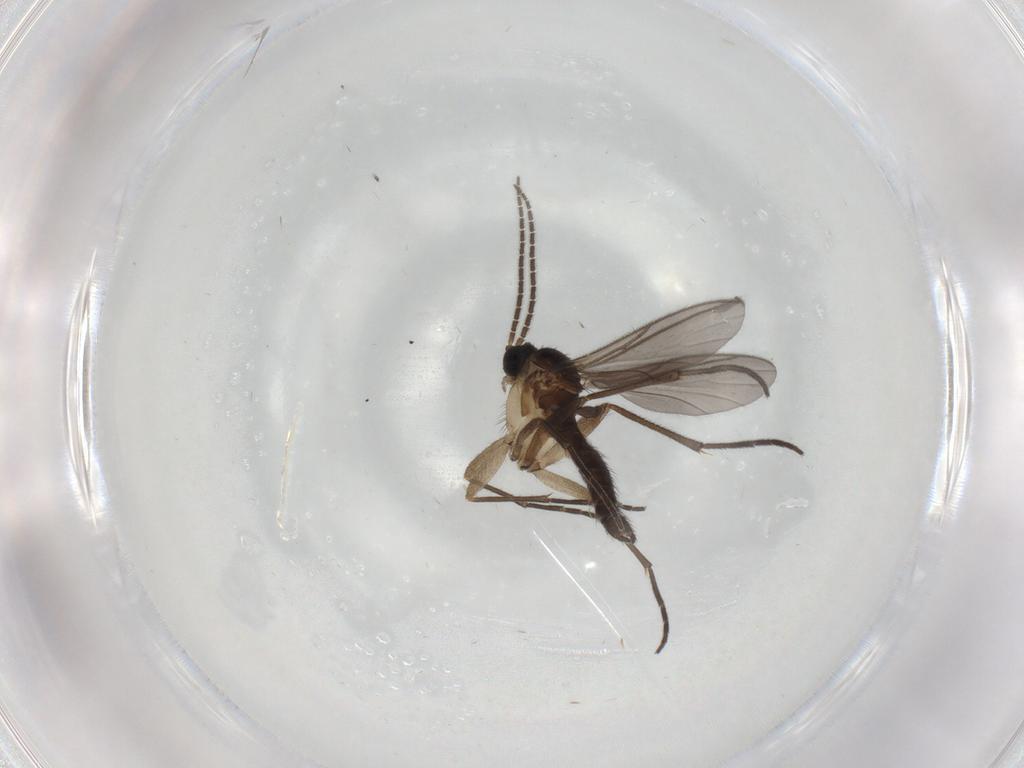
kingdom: Animalia
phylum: Arthropoda
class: Insecta
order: Diptera
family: Sciaridae
